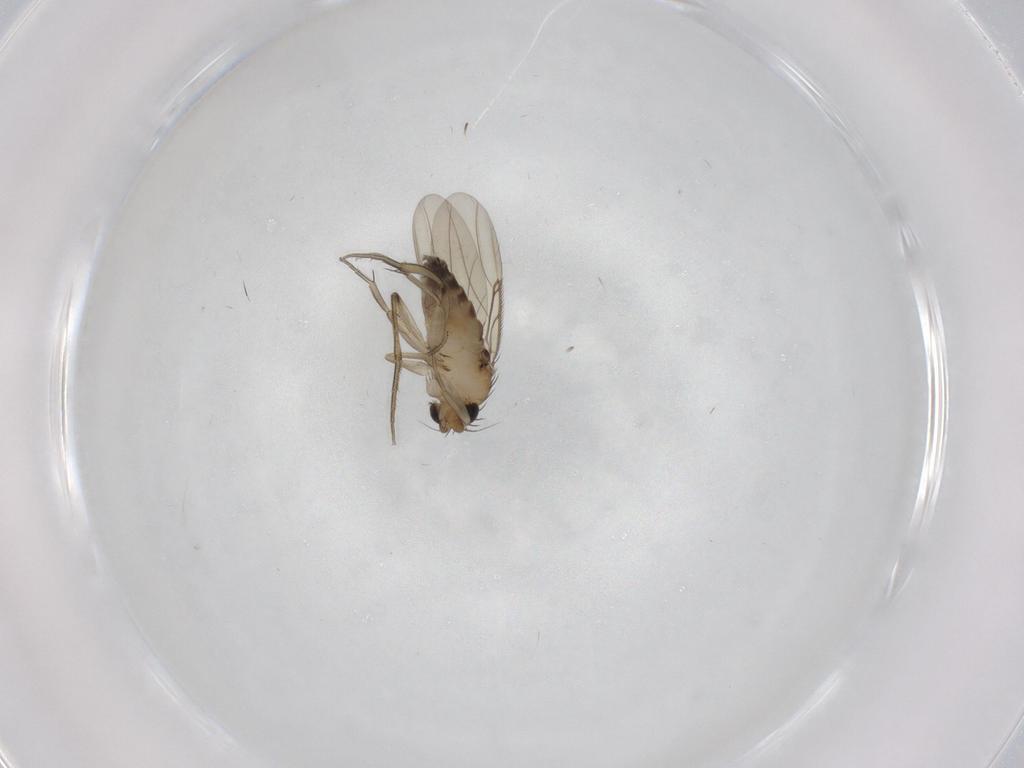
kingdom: Animalia
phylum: Arthropoda
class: Insecta
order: Diptera
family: Phoridae
